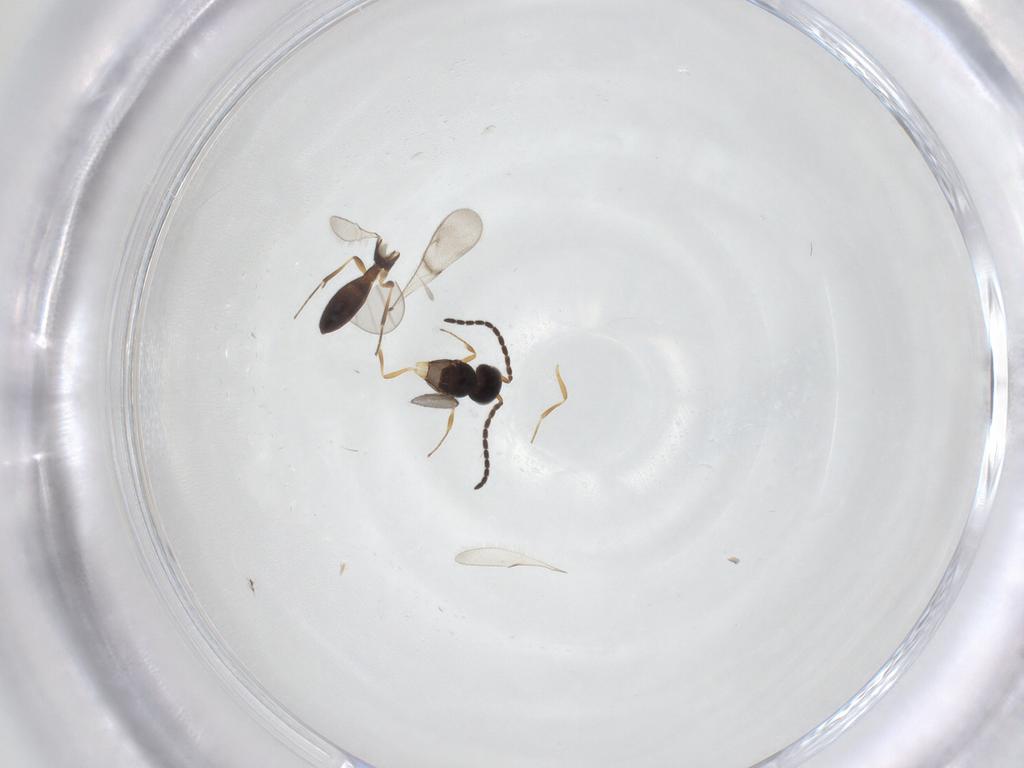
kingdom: Animalia
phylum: Arthropoda
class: Insecta
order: Hymenoptera
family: Scelionidae
